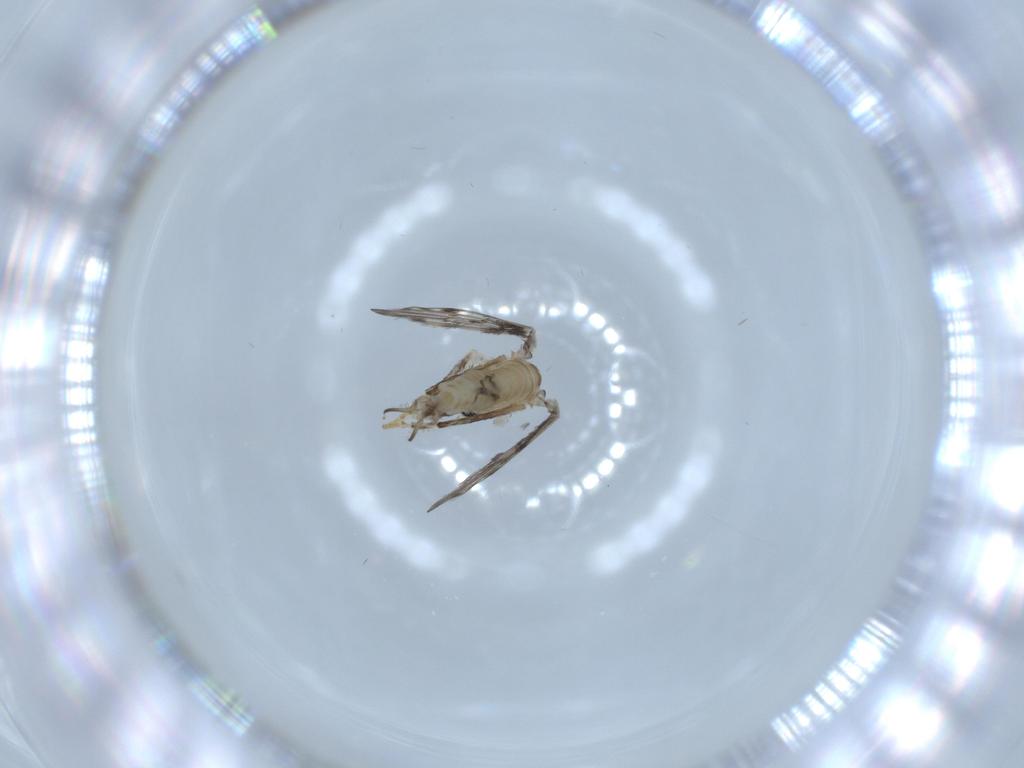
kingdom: Animalia
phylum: Arthropoda
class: Insecta
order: Diptera
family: Psychodidae
